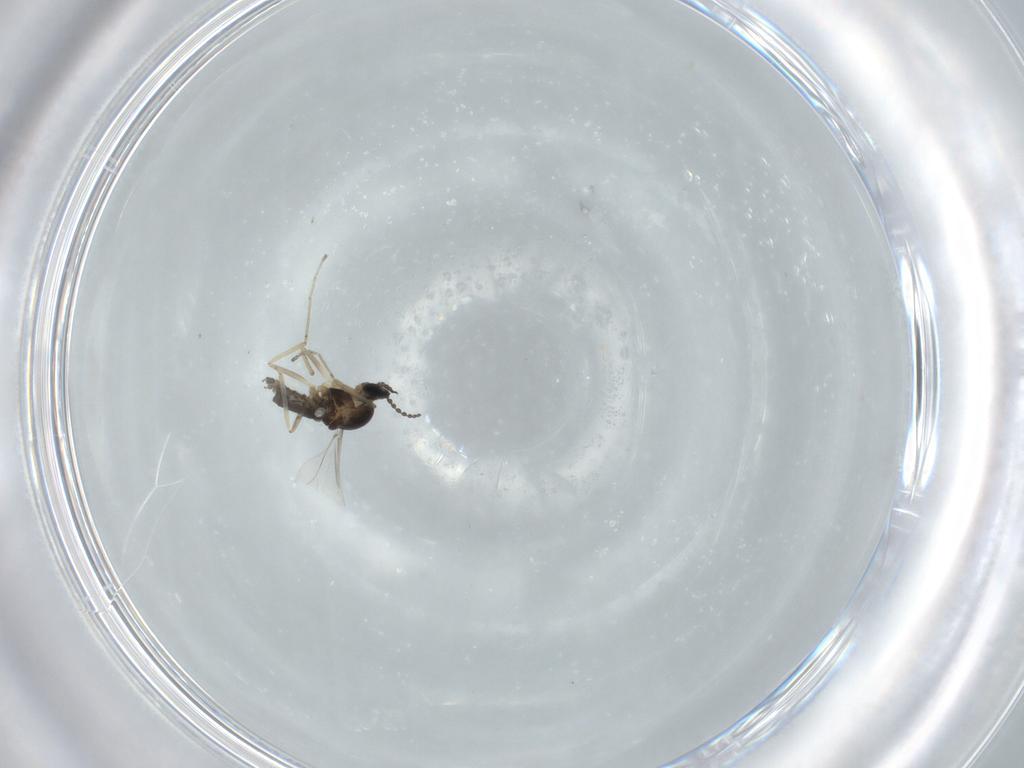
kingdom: Animalia
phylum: Arthropoda
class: Insecta
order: Diptera
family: Cecidomyiidae
